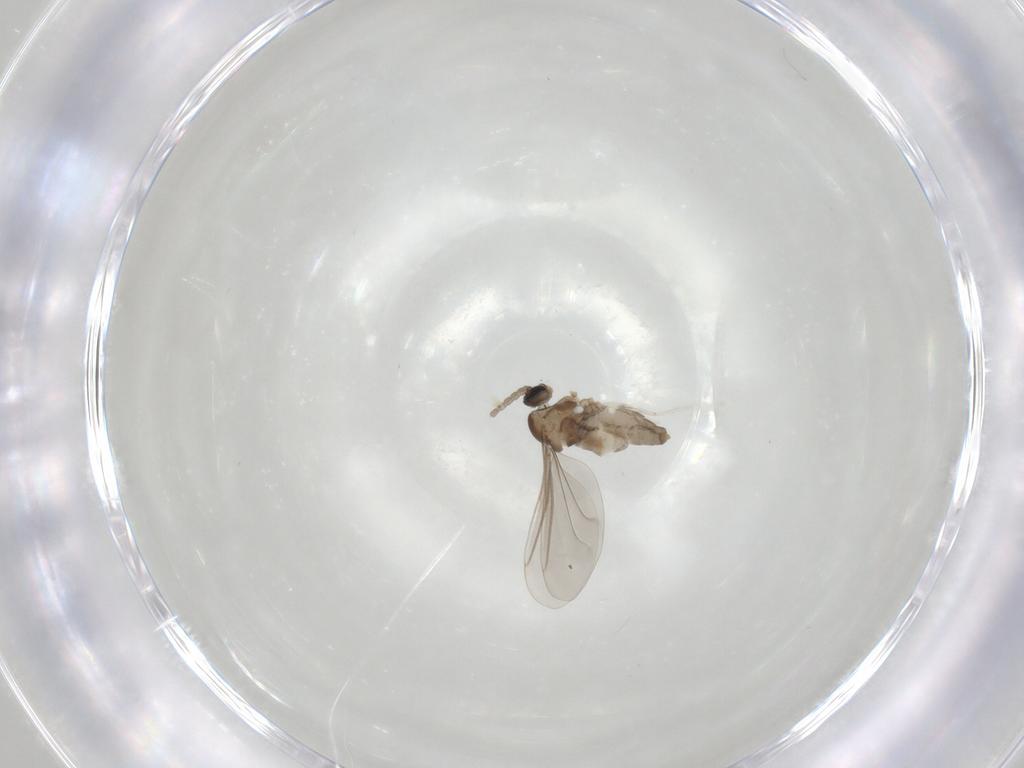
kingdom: Animalia
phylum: Arthropoda
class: Insecta
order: Diptera
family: Cecidomyiidae
